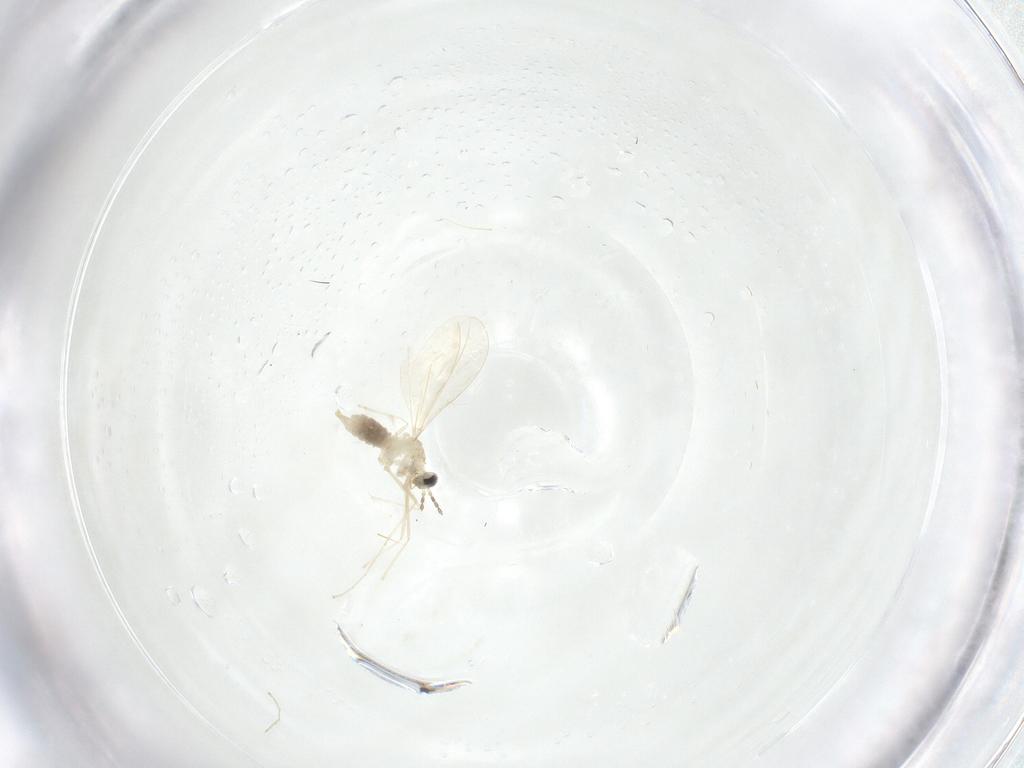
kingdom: Animalia
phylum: Arthropoda
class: Insecta
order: Diptera
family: Cecidomyiidae
